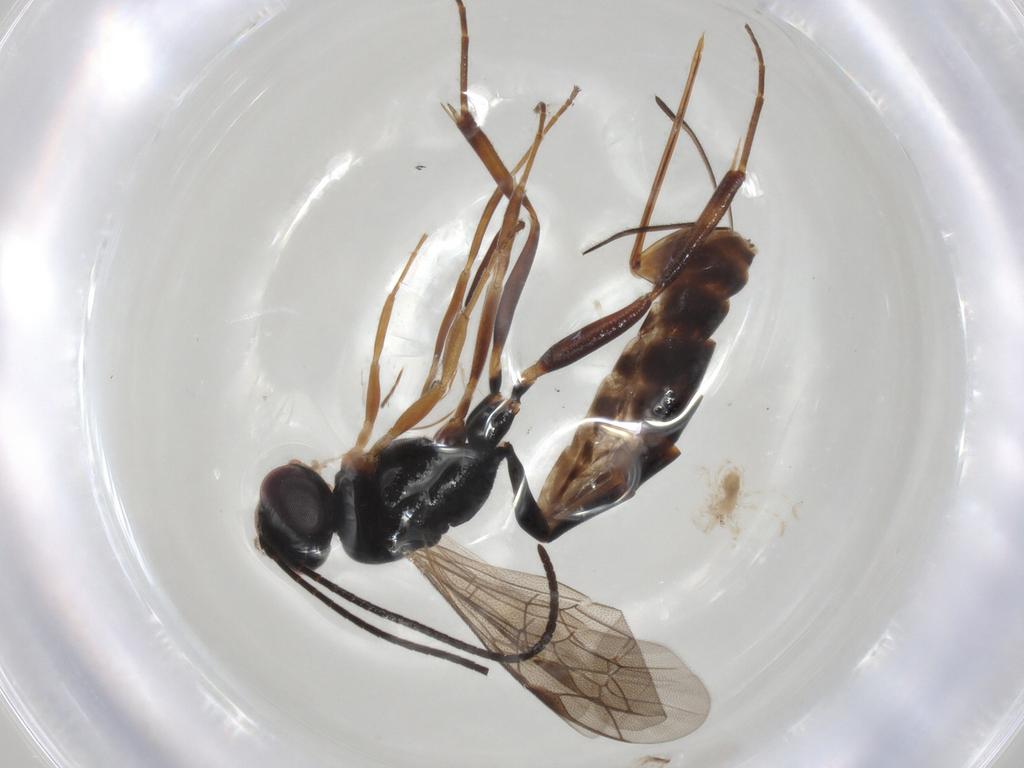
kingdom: Animalia
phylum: Arthropoda
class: Insecta
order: Hymenoptera
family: Ichneumonidae
